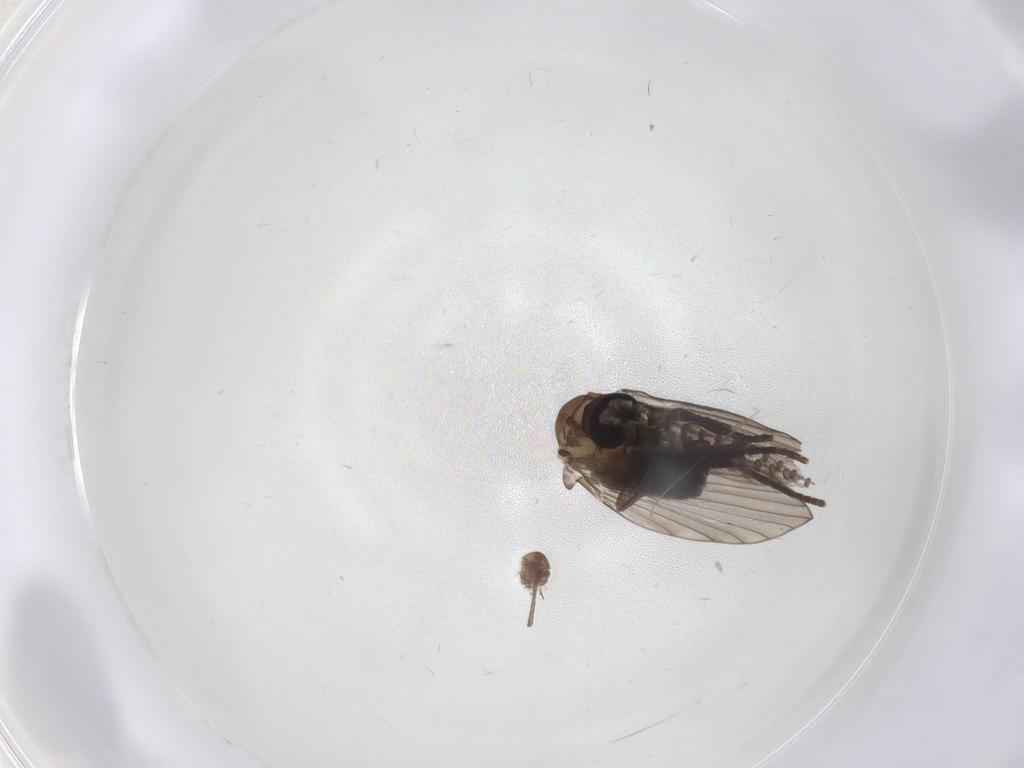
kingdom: Animalia
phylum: Arthropoda
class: Insecta
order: Diptera
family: Psychodidae
